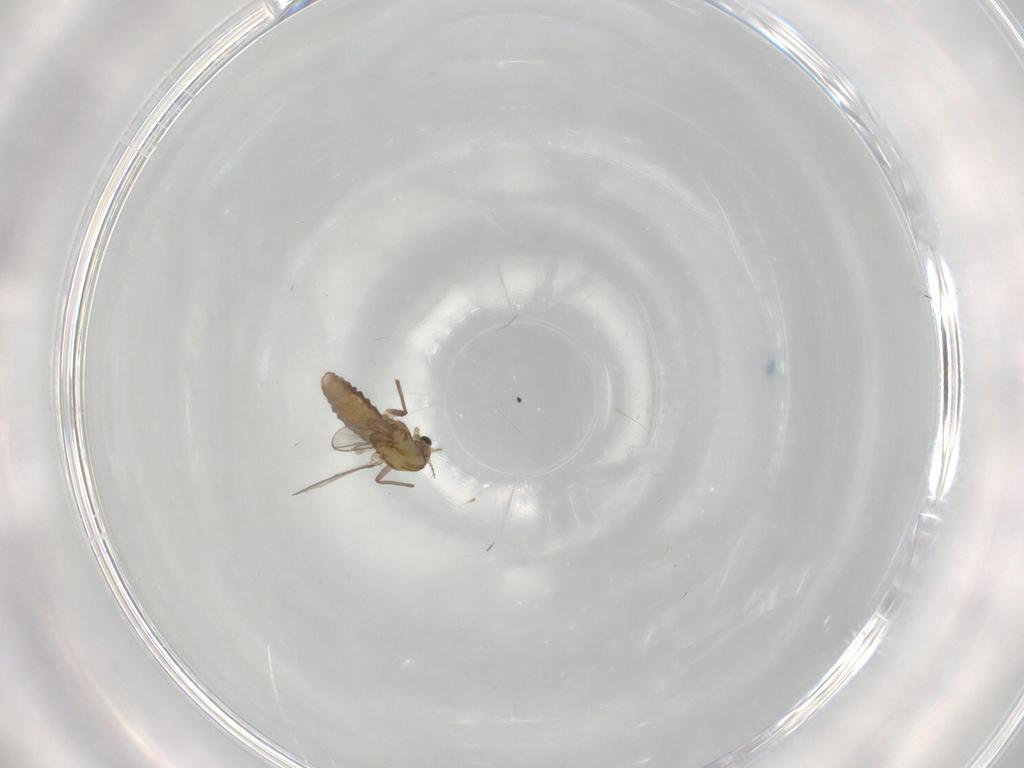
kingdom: Animalia
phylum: Arthropoda
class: Insecta
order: Diptera
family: Chironomidae
